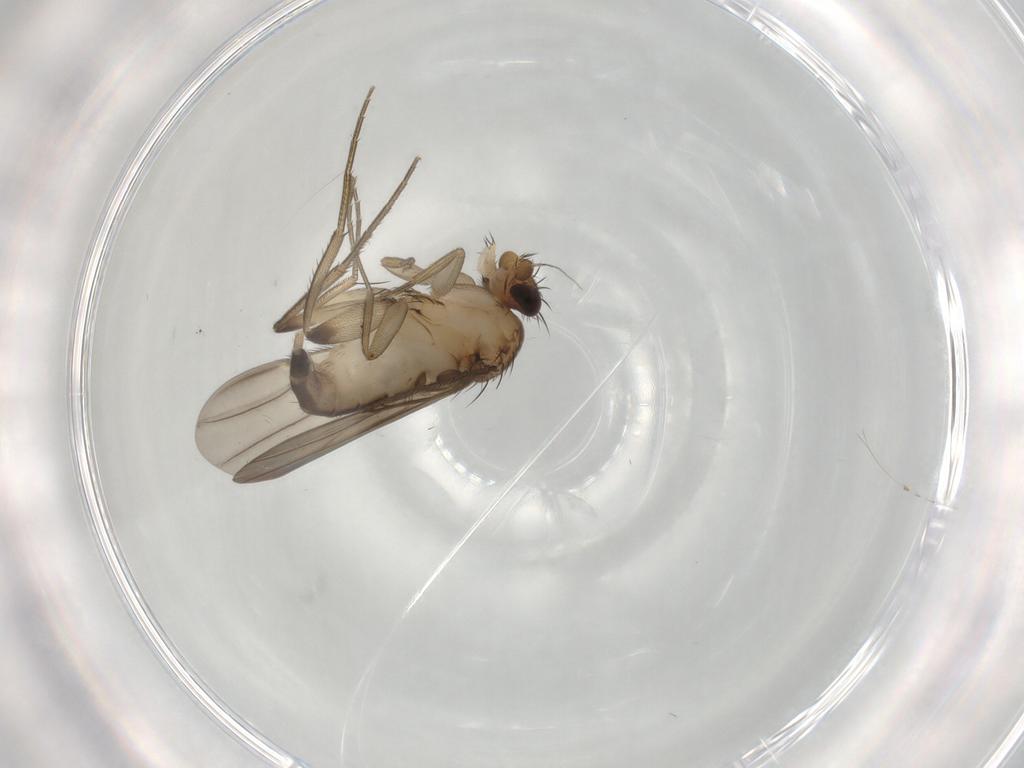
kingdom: Animalia
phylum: Arthropoda
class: Insecta
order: Diptera
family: Phoridae
